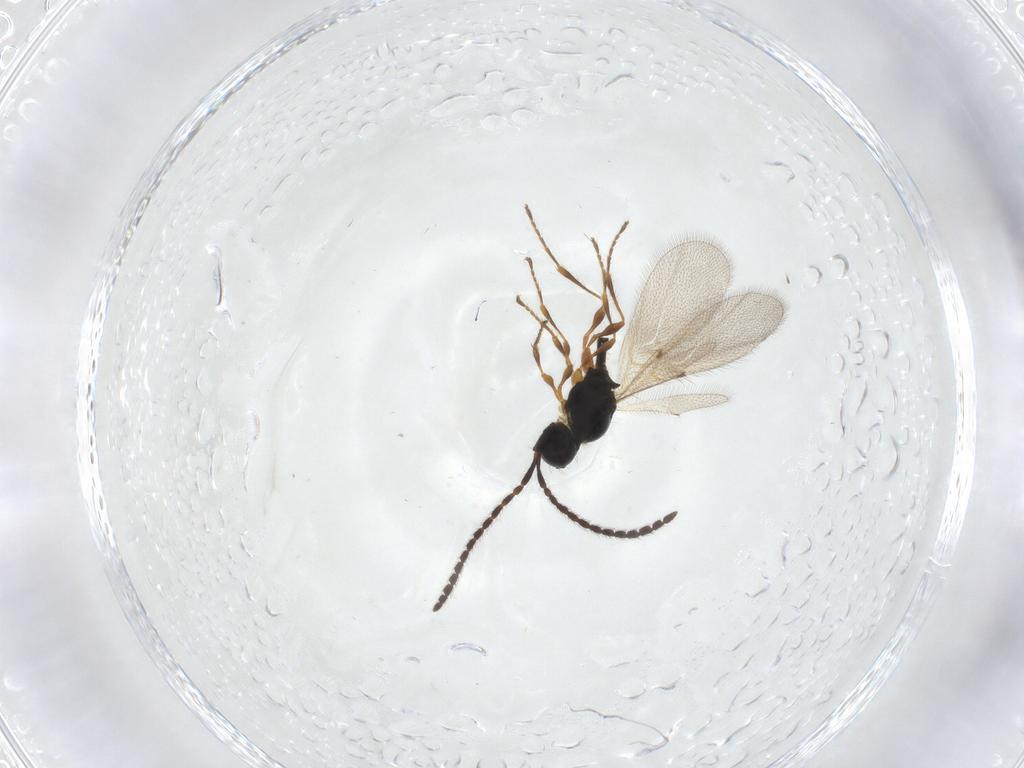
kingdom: Animalia
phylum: Arthropoda
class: Insecta
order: Hymenoptera
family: Diapriidae
